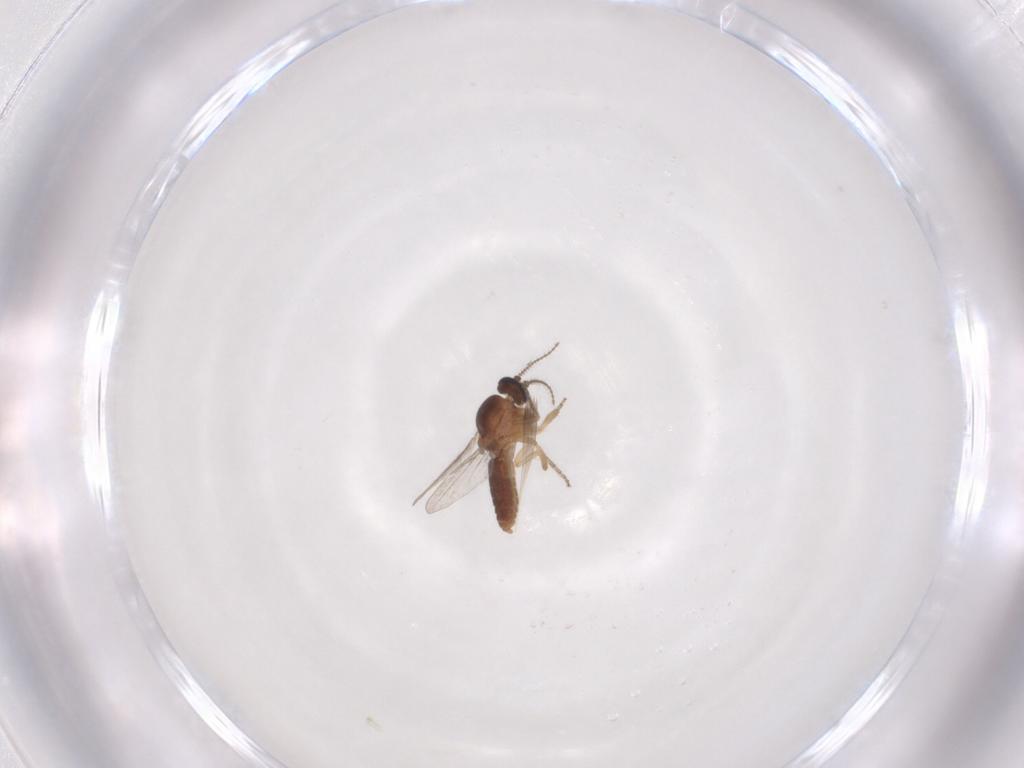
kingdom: Animalia
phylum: Arthropoda
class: Insecta
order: Diptera
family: Ceratopogonidae
